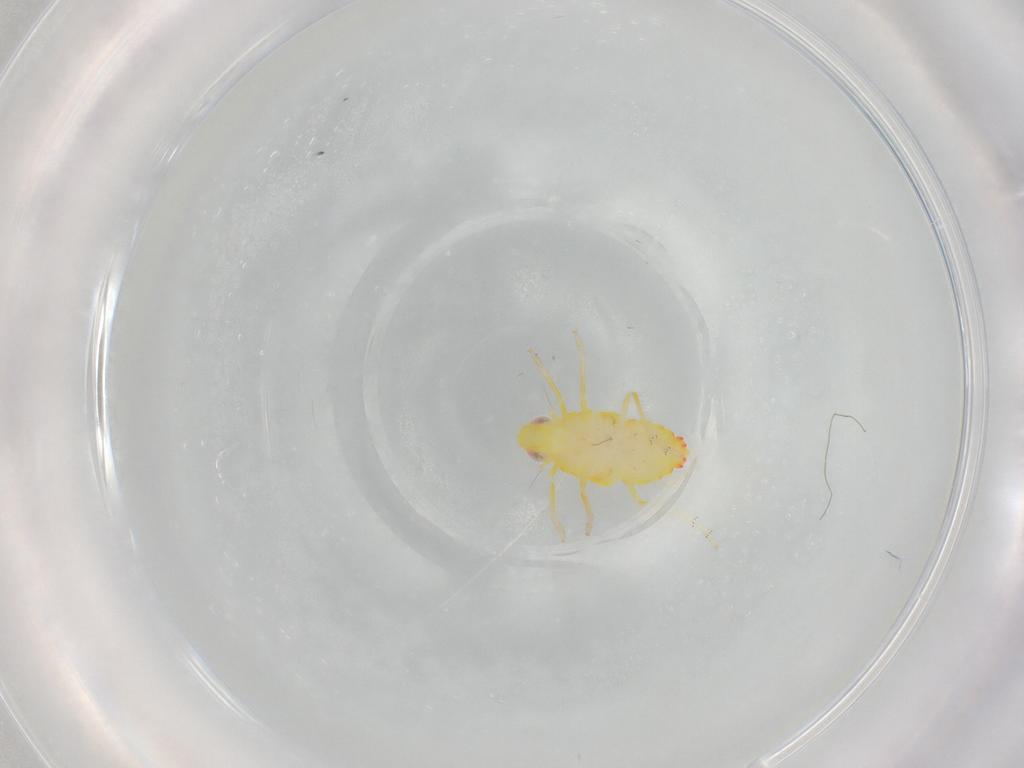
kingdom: Animalia
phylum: Arthropoda
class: Insecta
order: Hemiptera
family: Tropiduchidae
